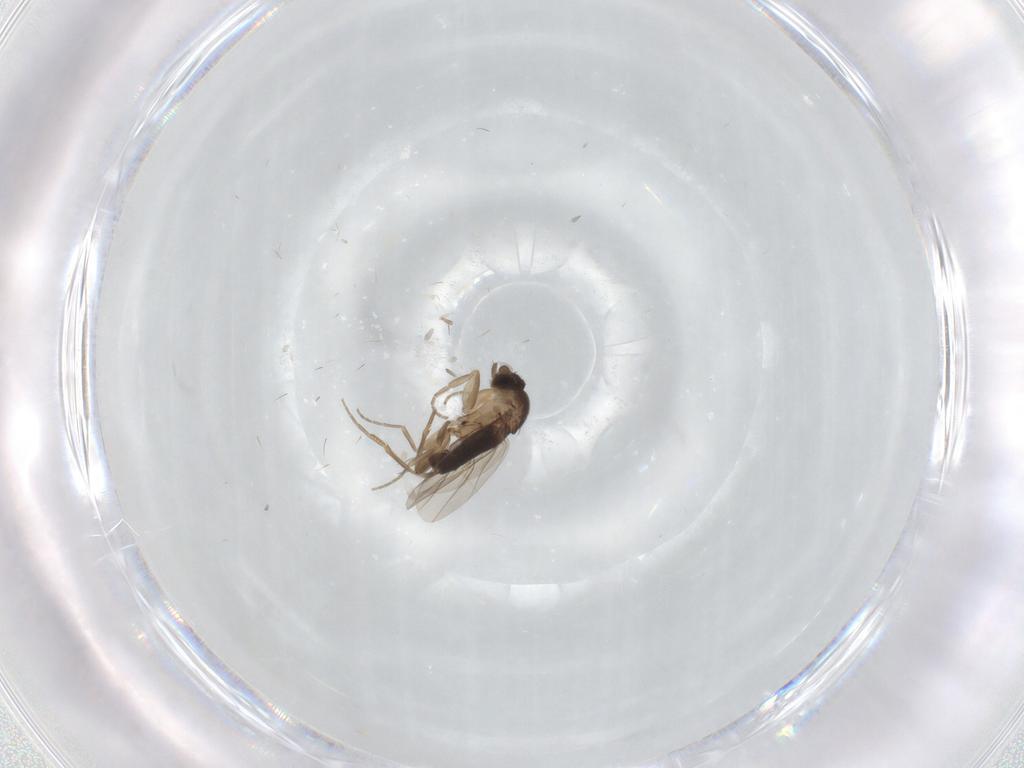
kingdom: Animalia
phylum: Arthropoda
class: Insecta
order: Diptera
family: Phoridae
